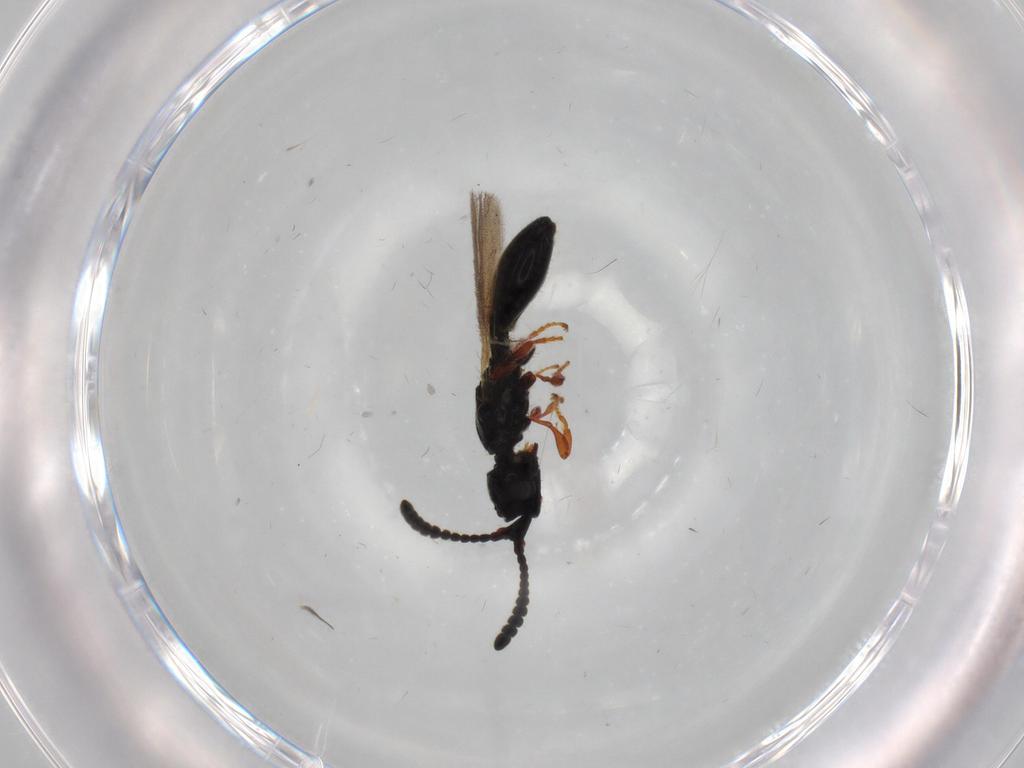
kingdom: Animalia
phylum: Arthropoda
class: Insecta
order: Hymenoptera
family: Diapriidae
